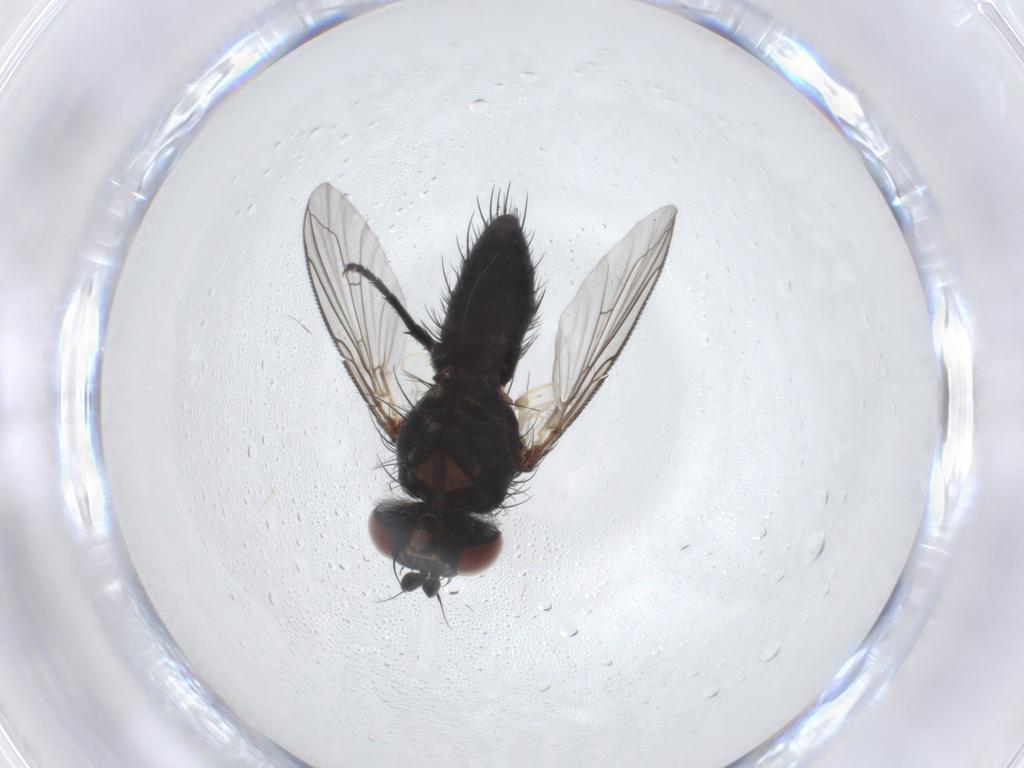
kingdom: Animalia
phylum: Arthropoda
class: Insecta
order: Diptera
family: Tachinidae
